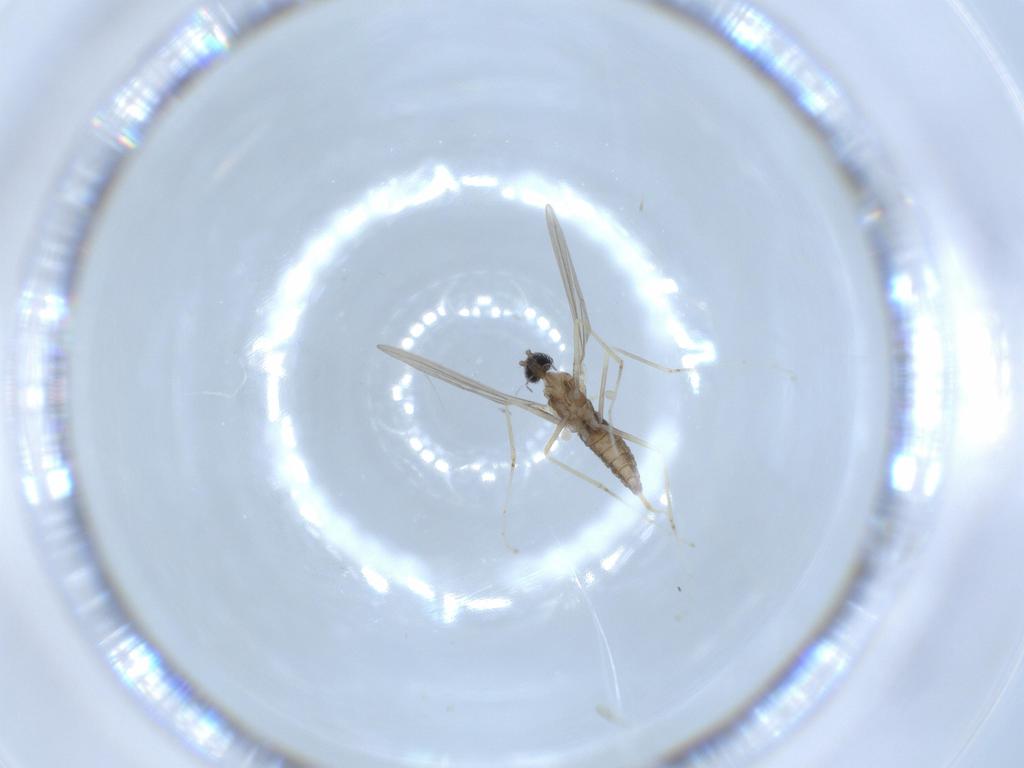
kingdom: Animalia
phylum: Arthropoda
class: Insecta
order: Diptera
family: Cecidomyiidae
